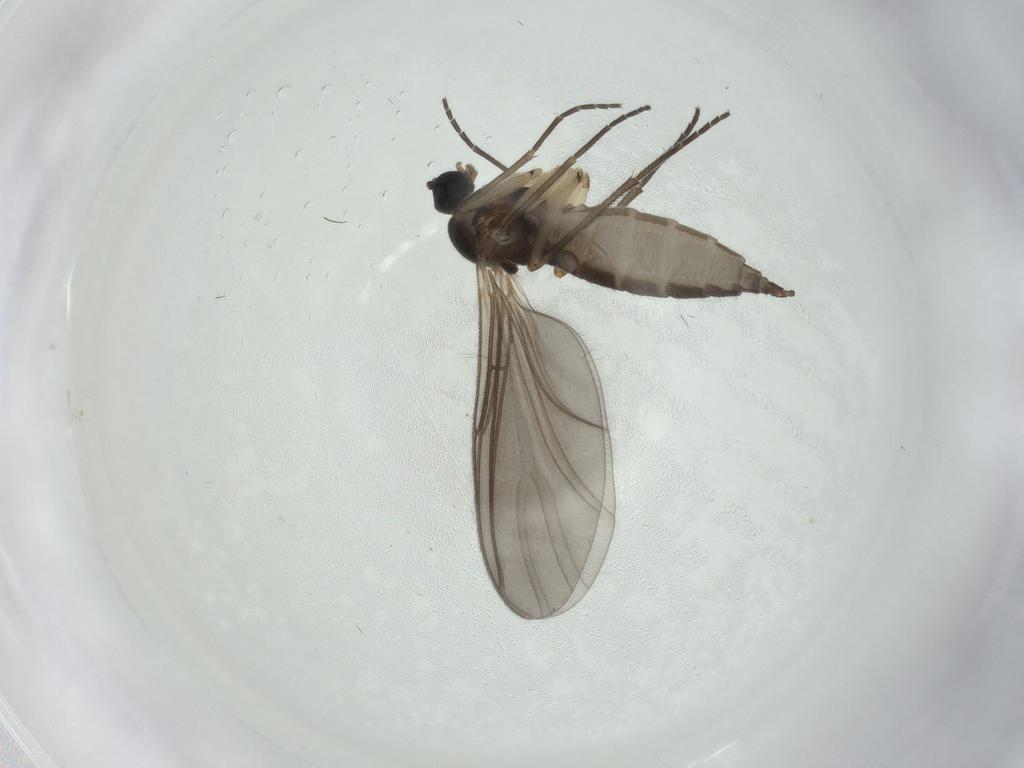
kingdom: Animalia
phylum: Arthropoda
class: Insecta
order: Diptera
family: Sciaridae
